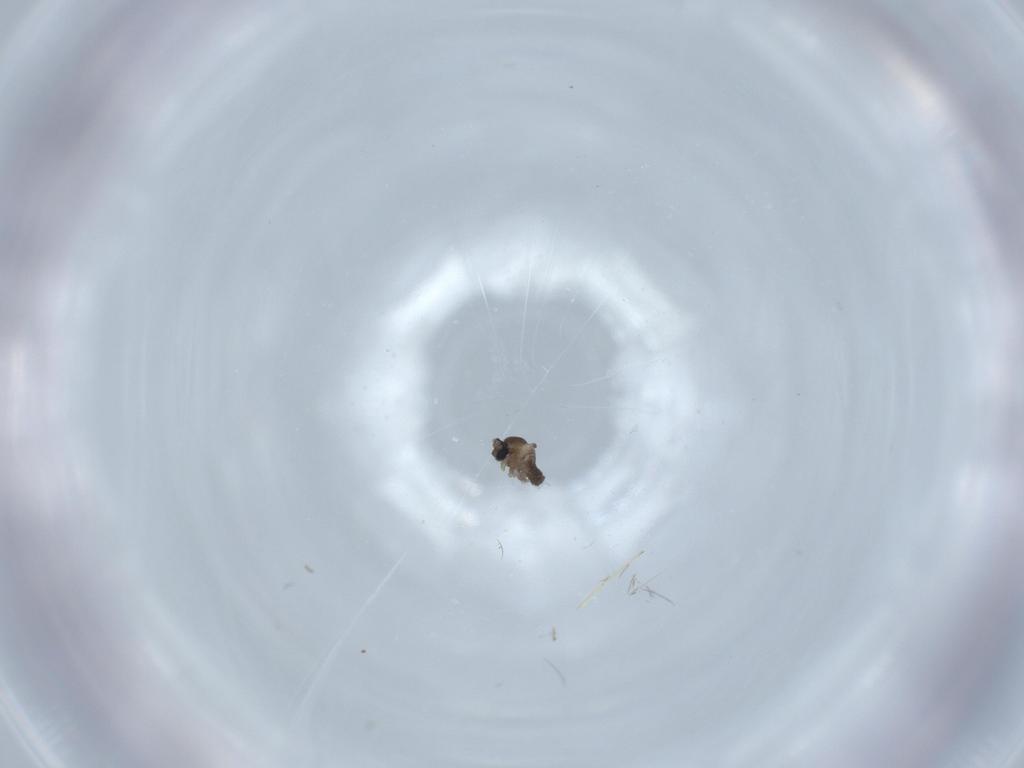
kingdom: Animalia
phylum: Arthropoda
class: Insecta
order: Diptera
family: Cecidomyiidae
